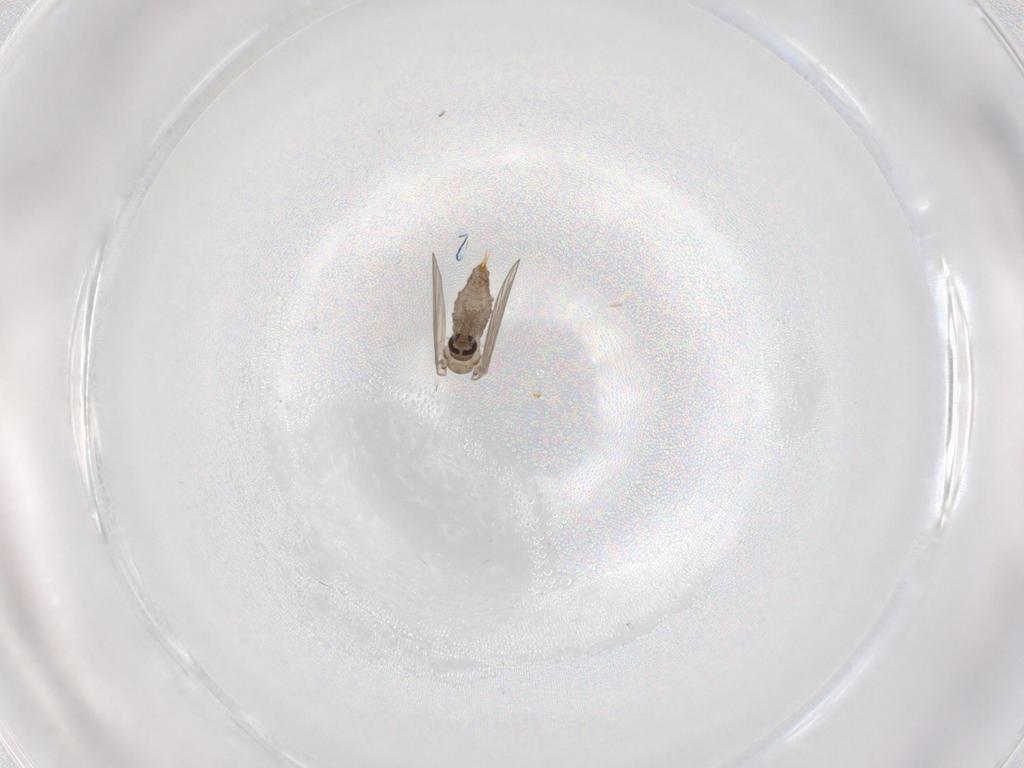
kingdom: Animalia
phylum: Arthropoda
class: Insecta
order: Diptera
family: Psychodidae
